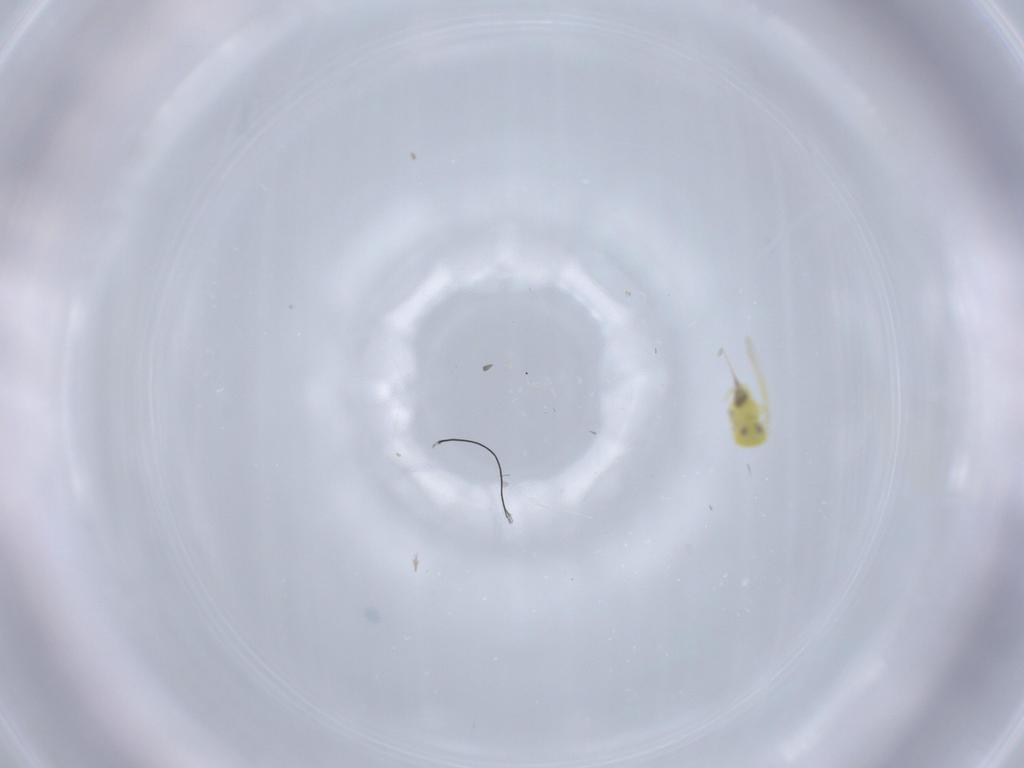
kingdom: Animalia
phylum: Arthropoda
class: Insecta
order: Hemiptera
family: Aleyrodidae
